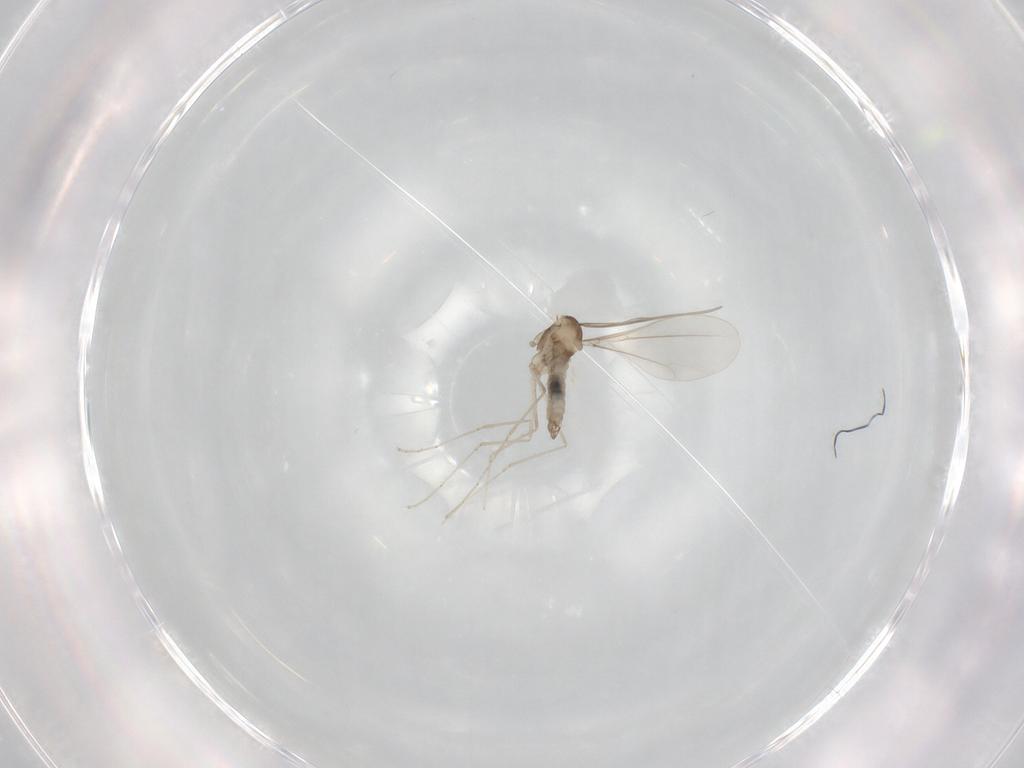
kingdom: Animalia
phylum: Arthropoda
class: Insecta
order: Diptera
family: Cecidomyiidae
